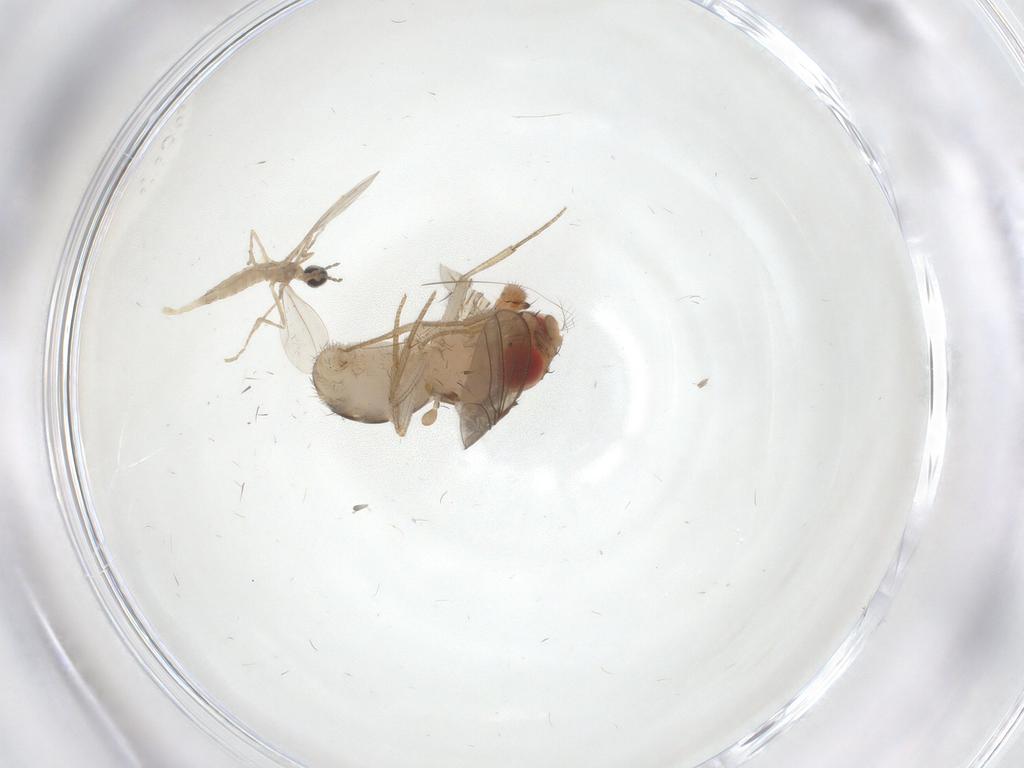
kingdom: Animalia
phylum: Arthropoda
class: Insecta
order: Diptera
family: Drosophilidae
